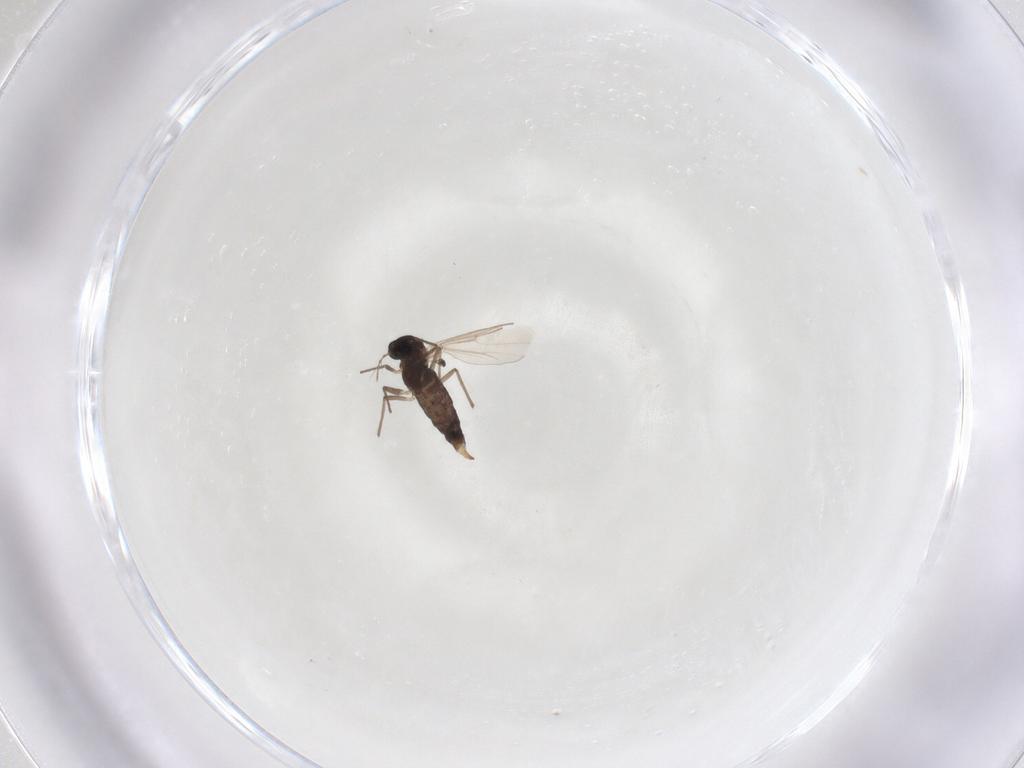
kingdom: Animalia
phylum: Arthropoda
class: Insecta
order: Diptera
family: Chironomidae
